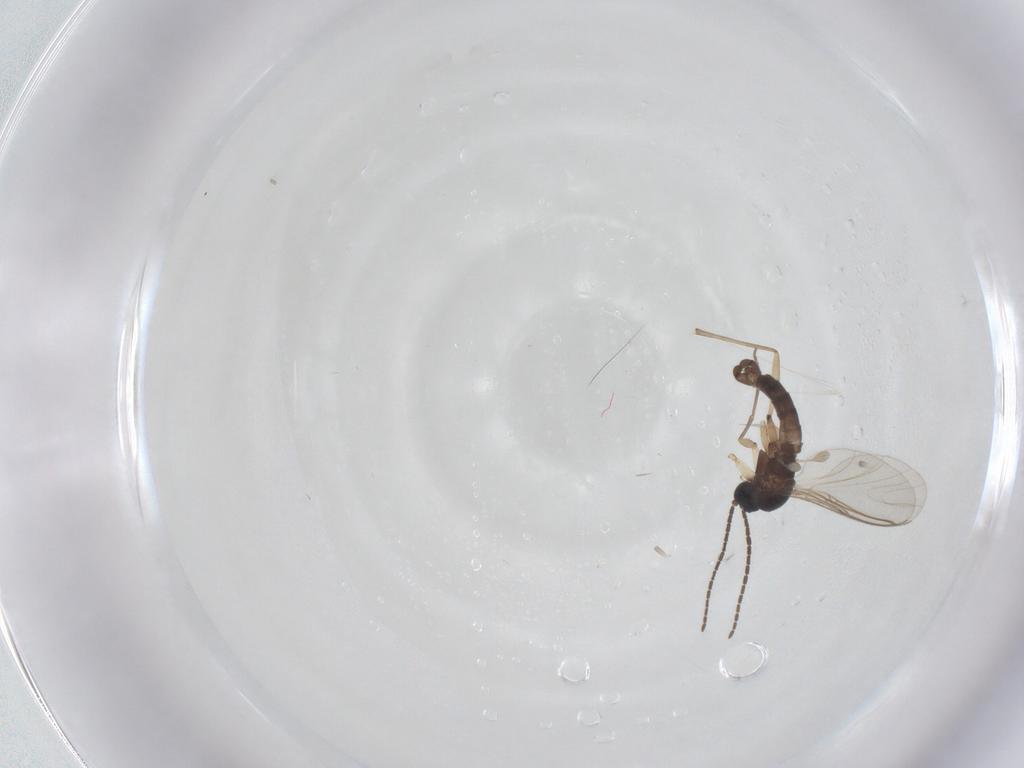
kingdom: Animalia
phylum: Arthropoda
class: Insecta
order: Diptera
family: Sciaridae
